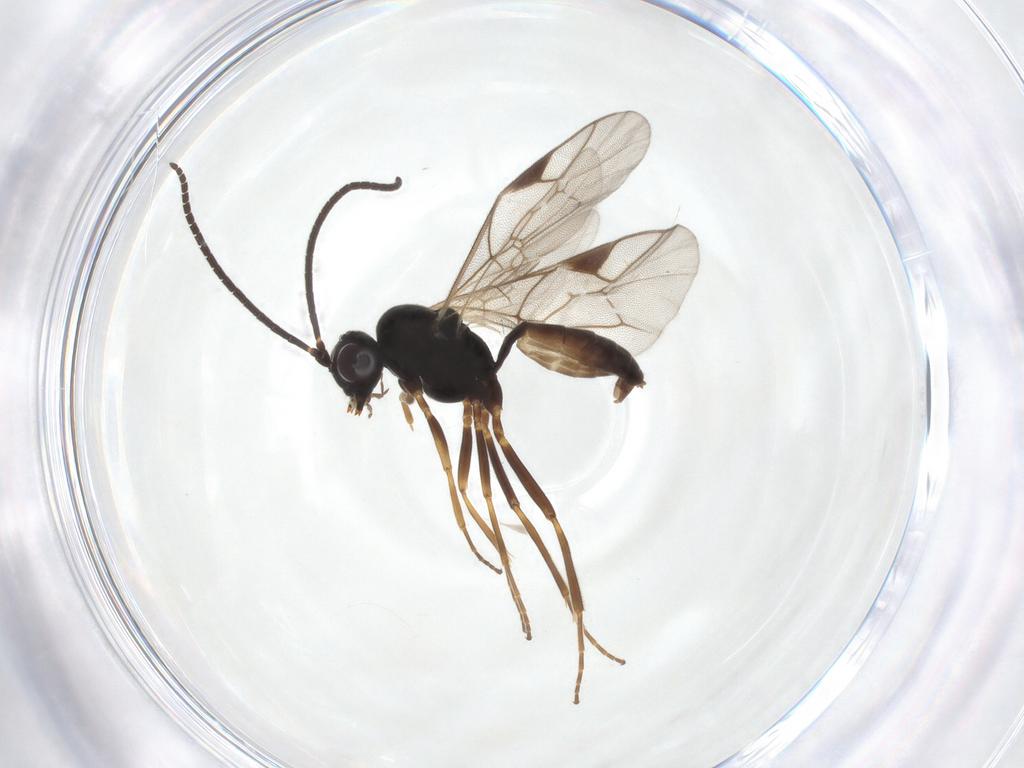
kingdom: Animalia
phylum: Arthropoda
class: Insecta
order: Hymenoptera
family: Ichneumonidae
